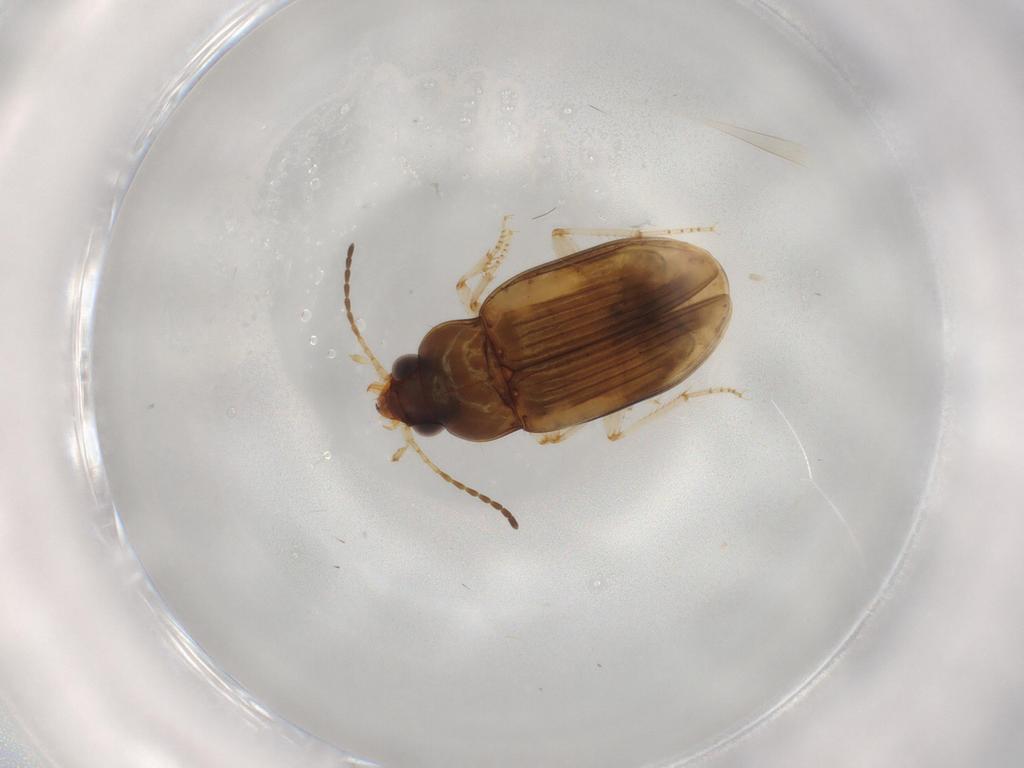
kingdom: Animalia
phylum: Arthropoda
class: Insecta
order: Coleoptera
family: Carabidae
